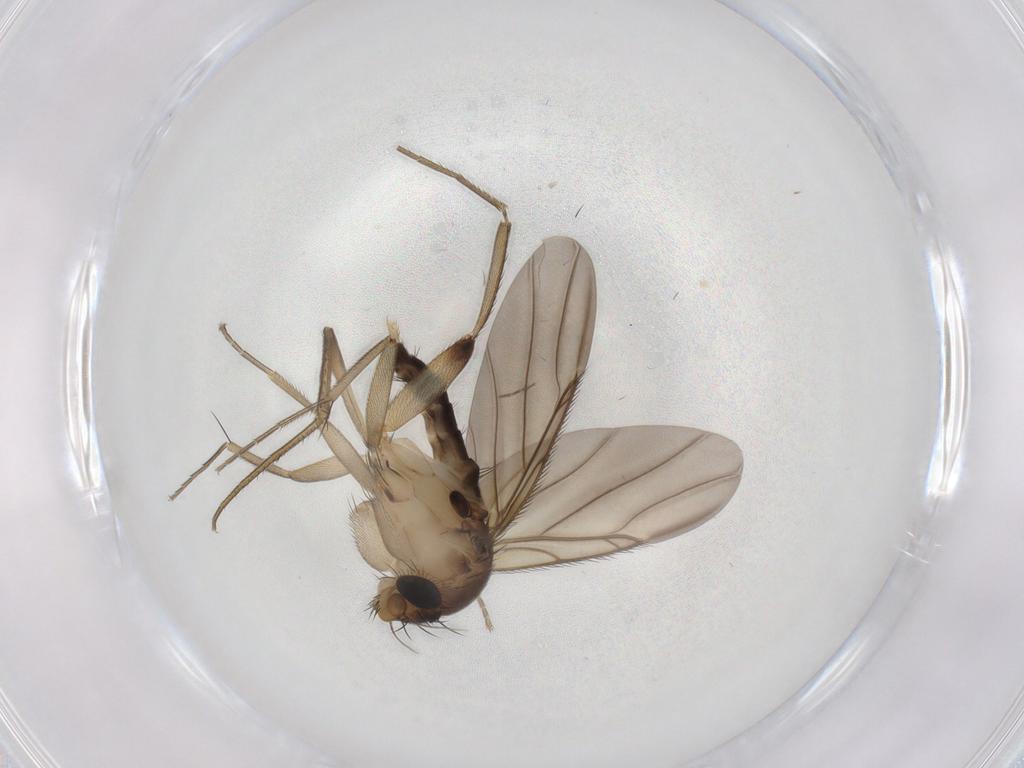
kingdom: Animalia
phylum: Arthropoda
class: Insecta
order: Diptera
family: Phoridae
